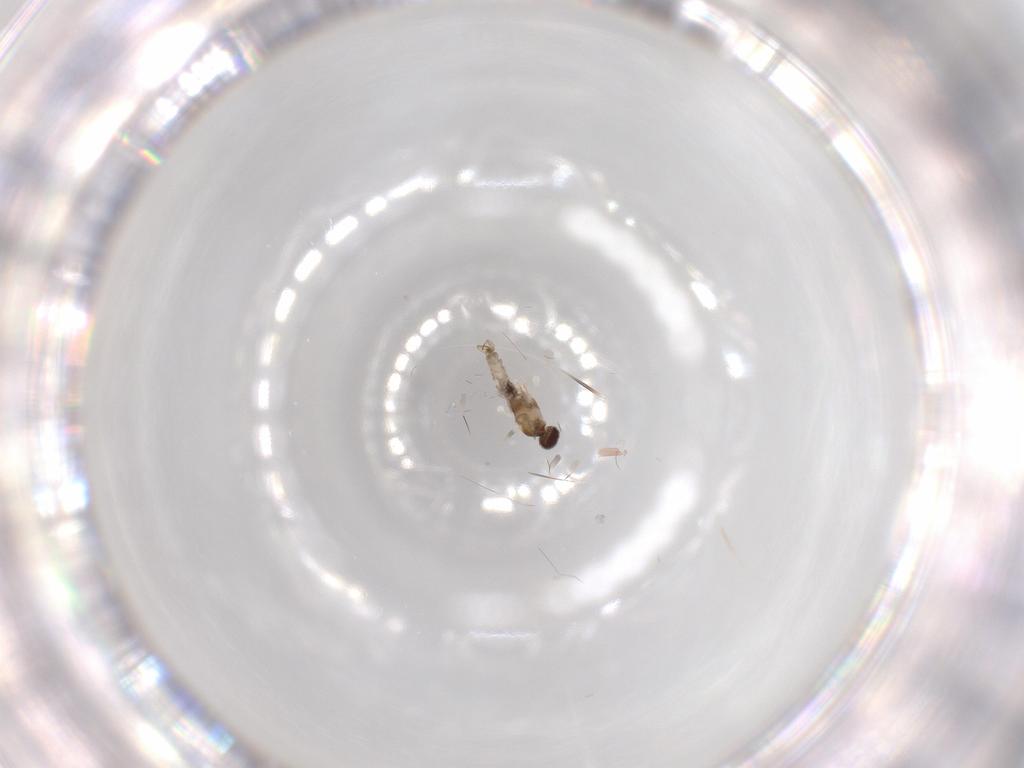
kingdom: Animalia
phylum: Arthropoda
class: Insecta
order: Diptera
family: Cecidomyiidae
